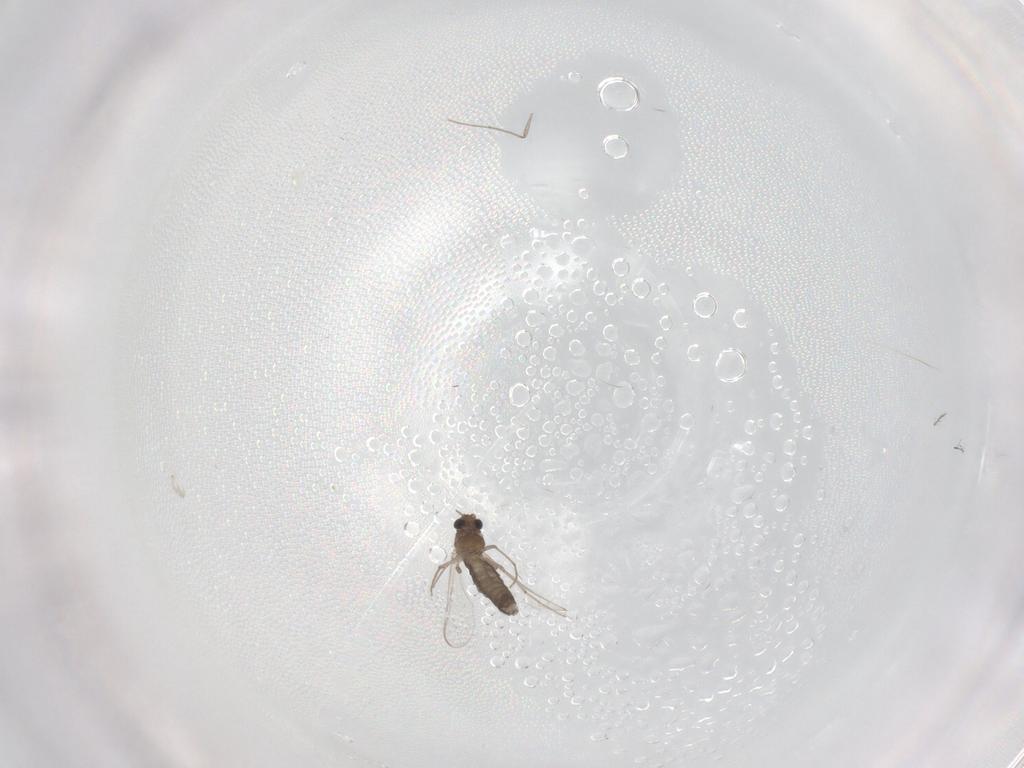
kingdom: Animalia
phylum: Arthropoda
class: Insecta
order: Diptera
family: Chironomidae
